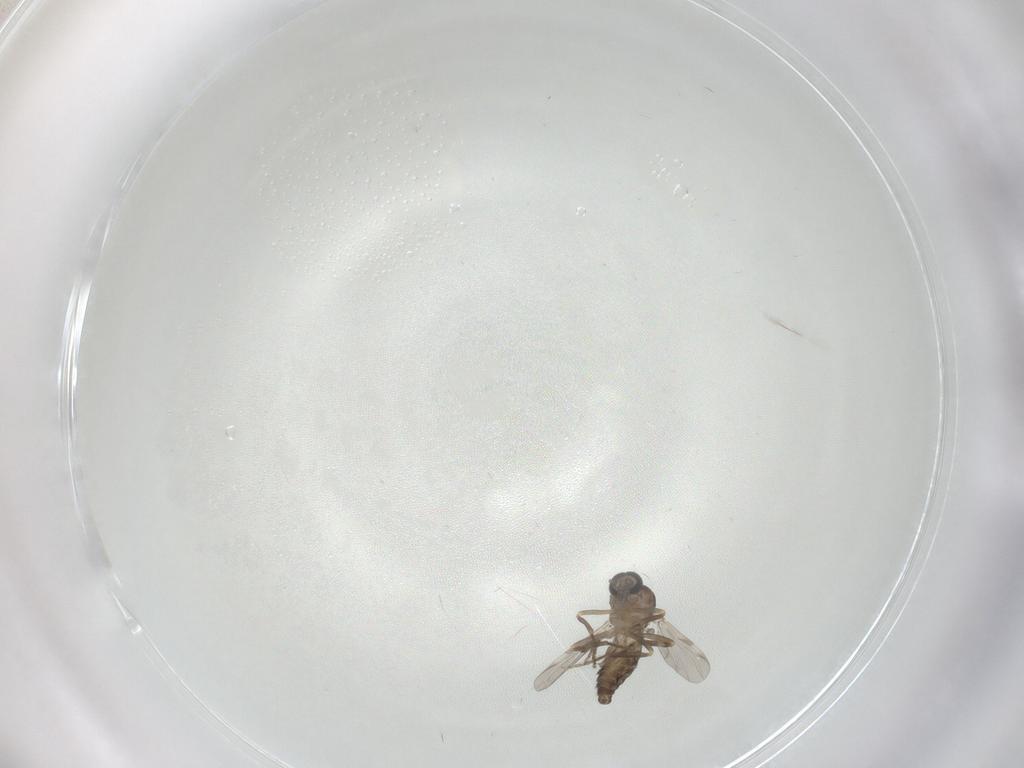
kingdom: Animalia
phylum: Arthropoda
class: Insecta
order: Diptera
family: Ceratopogonidae
